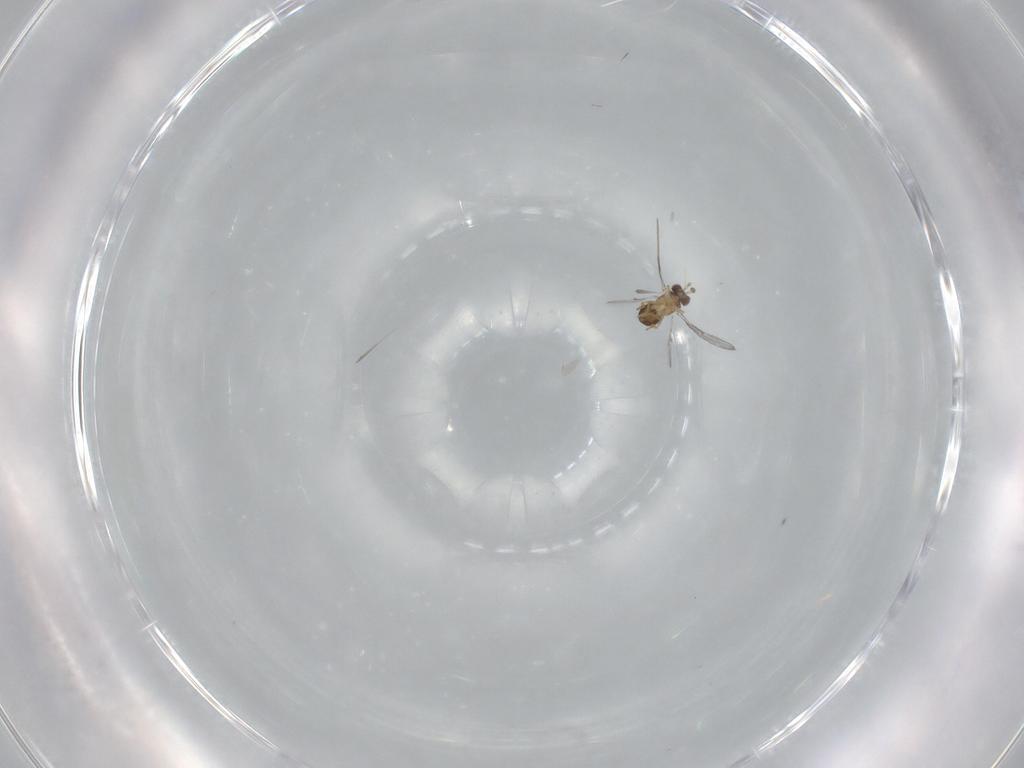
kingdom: Animalia
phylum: Arthropoda
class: Insecta
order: Hymenoptera
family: Trichogrammatidae
